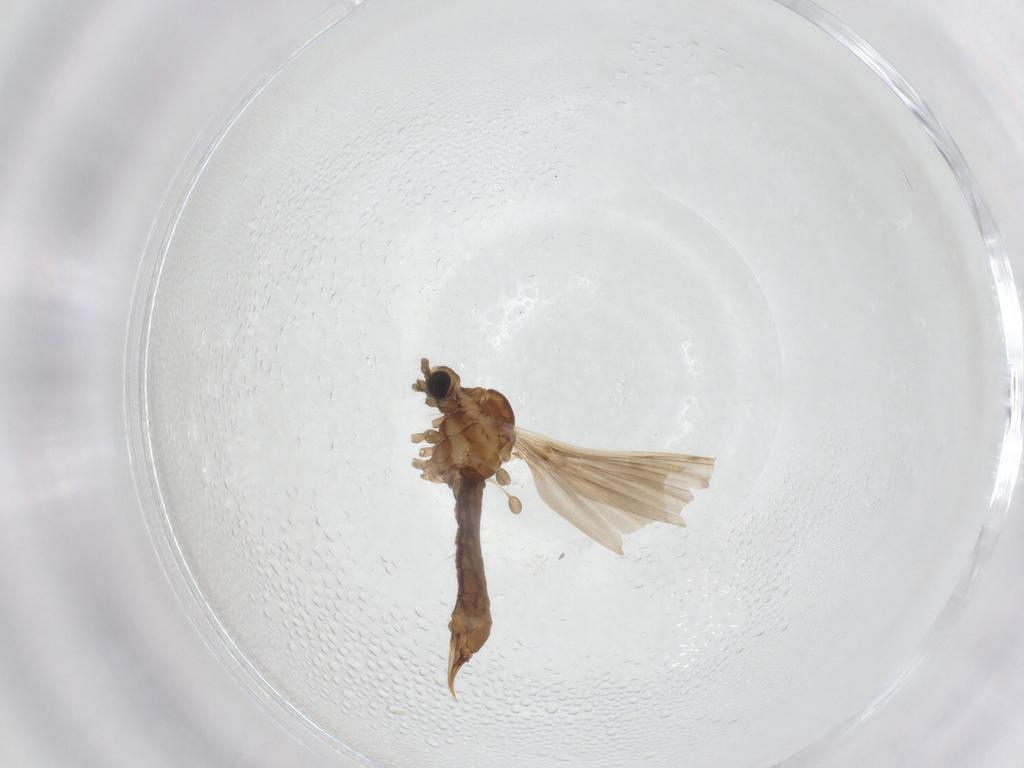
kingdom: Animalia
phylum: Arthropoda
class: Insecta
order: Diptera
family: Limoniidae
